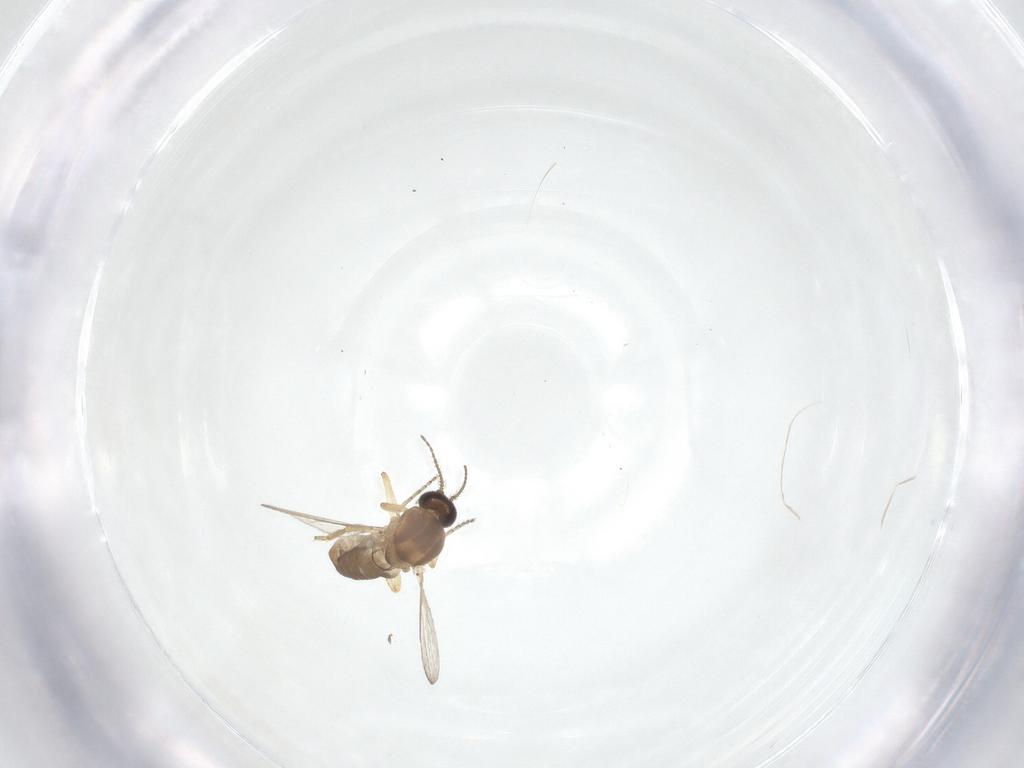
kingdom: Animalia
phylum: Arthropoda
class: Insecta
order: Diptera
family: Ceratopogonidae
